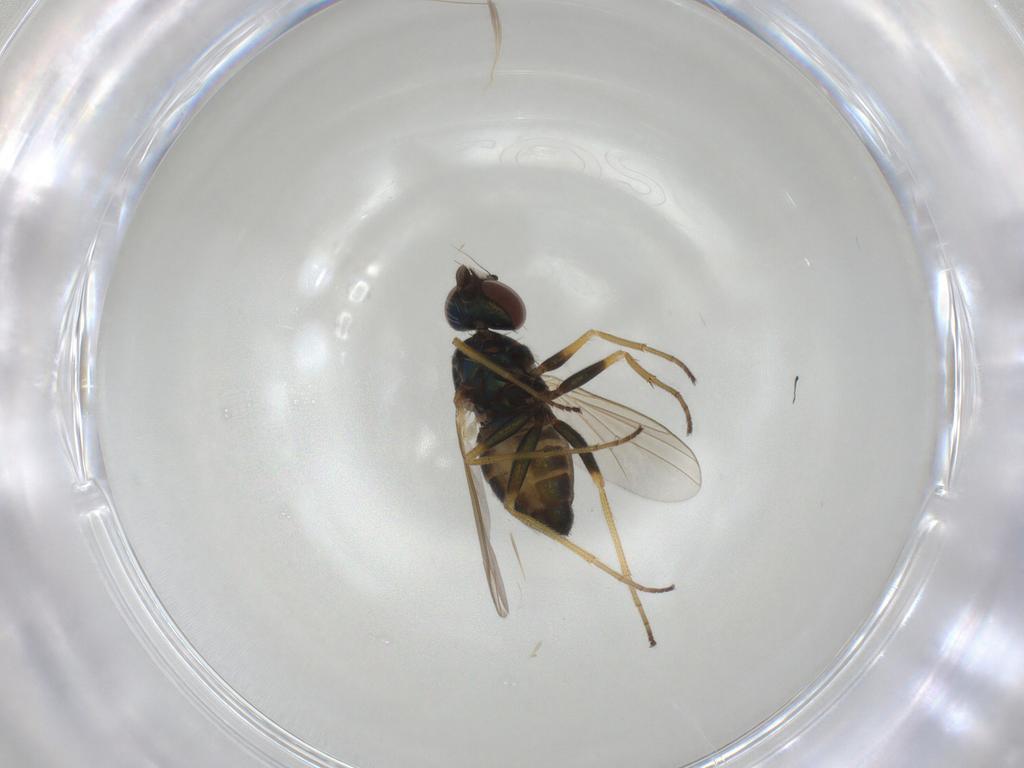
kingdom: Animalia
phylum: Arthropoda
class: Insecta
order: Diptera
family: Dolichopodidae
